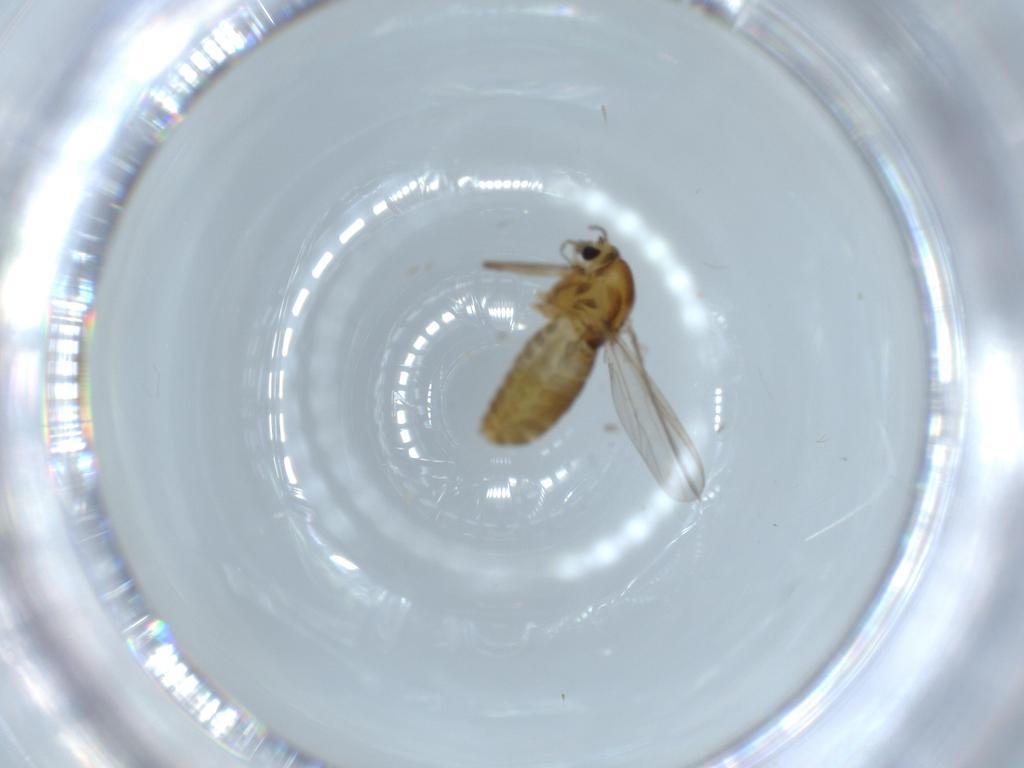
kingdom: Animalia
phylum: Arthropoda
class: Insecta
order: Diptera
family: Chironomidae
